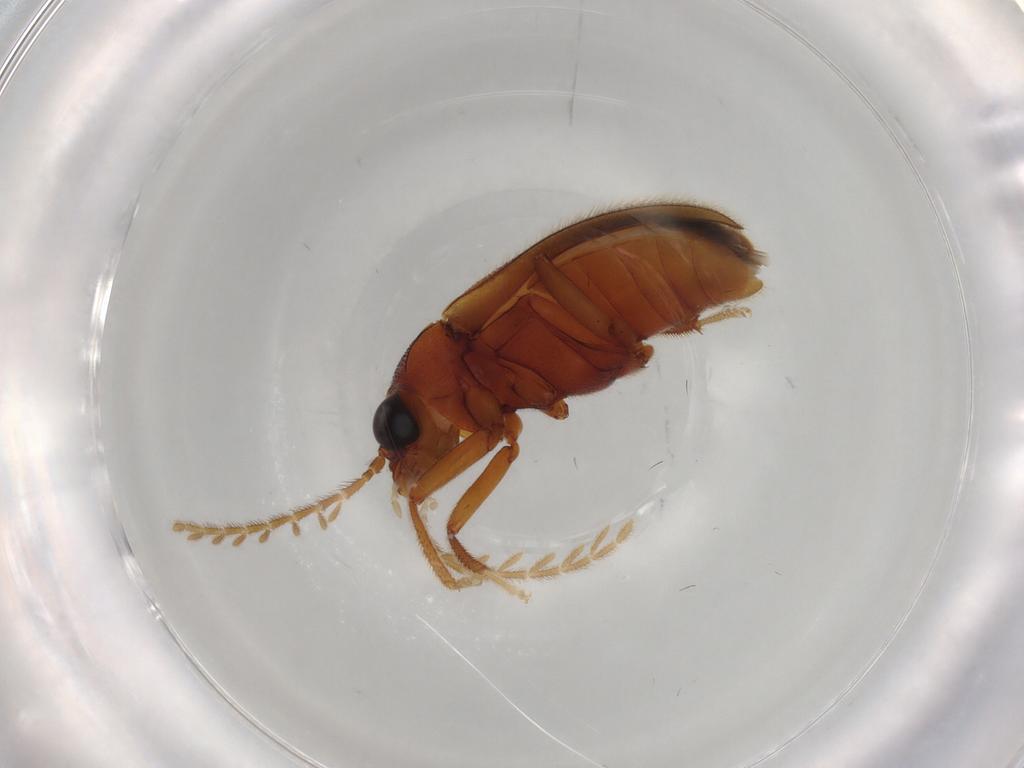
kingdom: Animalia
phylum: Arthropoda
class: Insecta
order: Coleoptera
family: Ptilodactylidae
